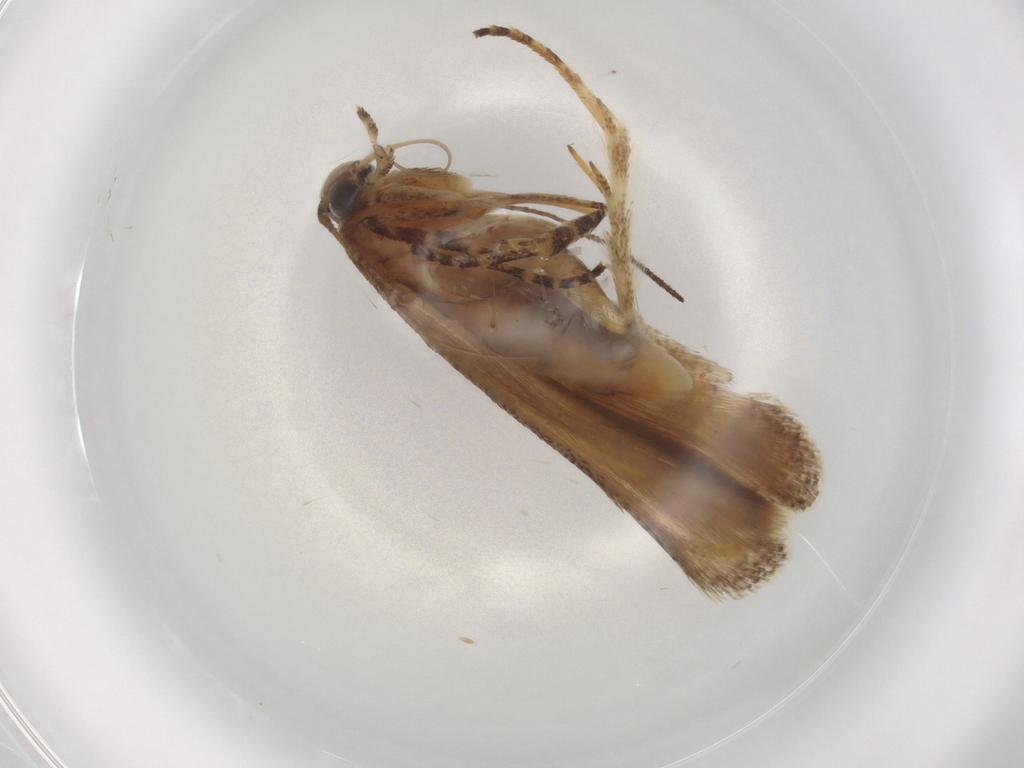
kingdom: Animalia
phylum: Arthropoda
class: Insecta
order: Lepidoptera
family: Gelechiidae
